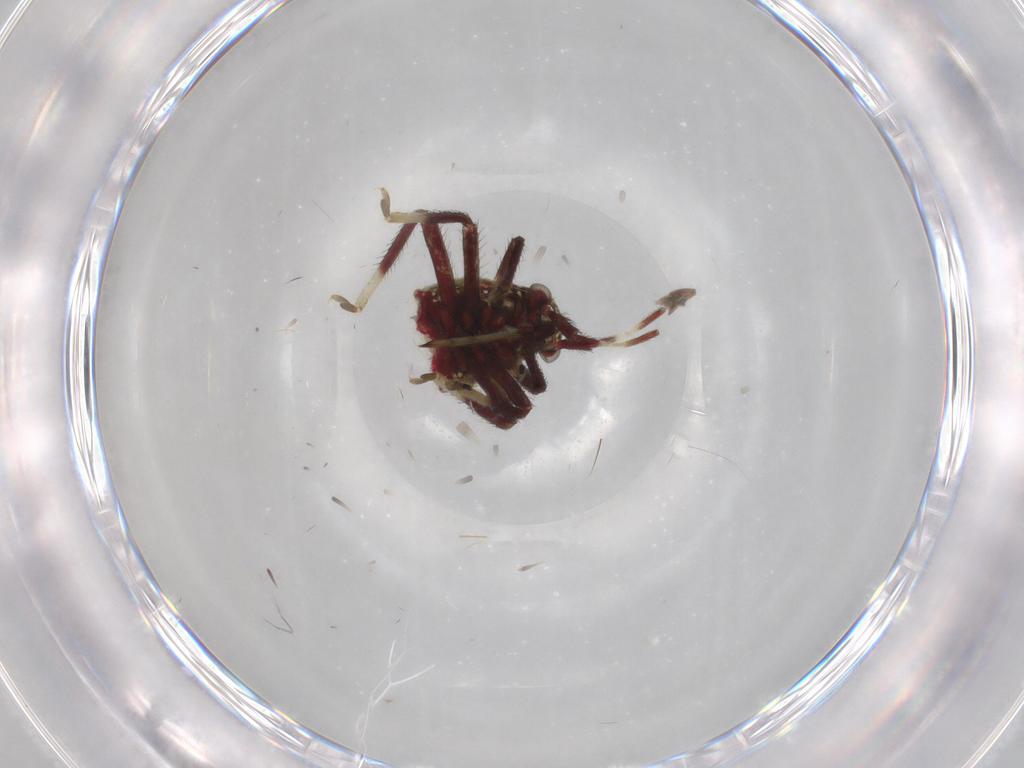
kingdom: Animalia
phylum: Arthropoda
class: Insecta
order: Hemiptera
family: Miridae
